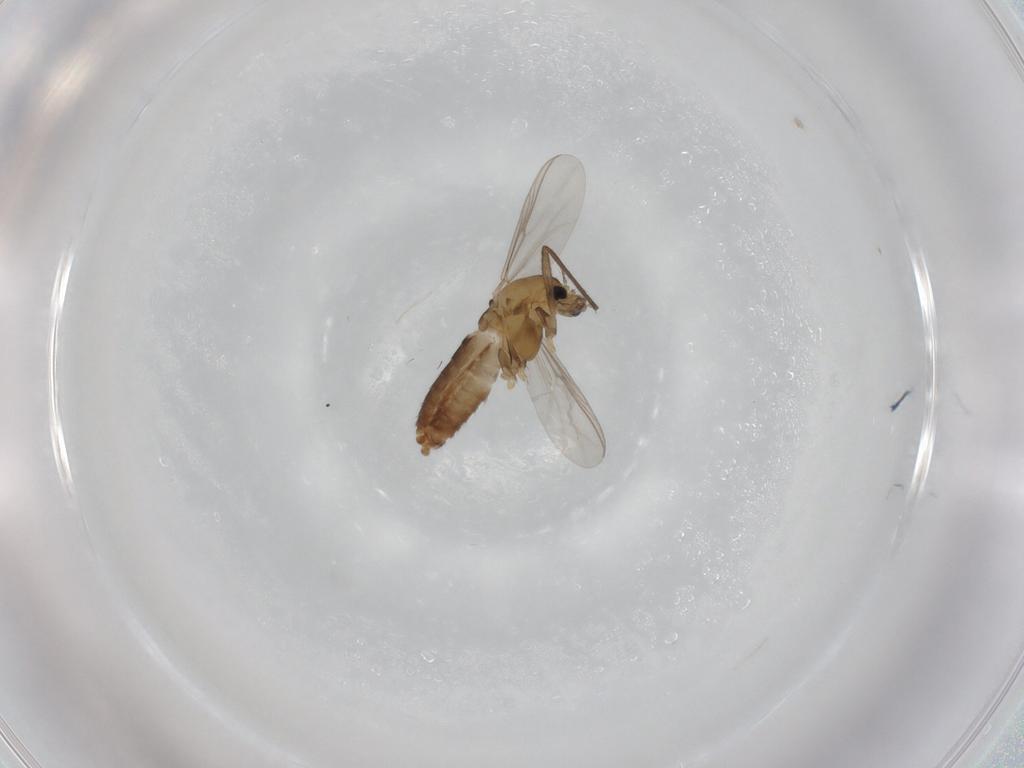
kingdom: Animalia
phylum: Arthropoda
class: Insecta
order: Diptera
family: Chironomidae
